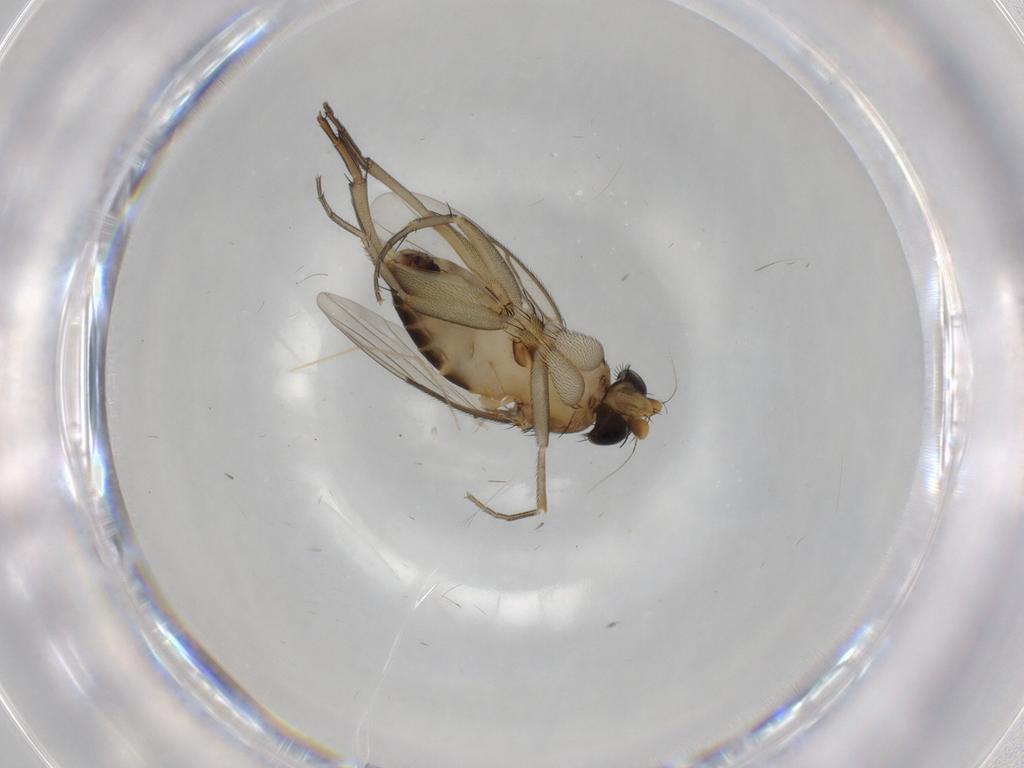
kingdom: Animalia
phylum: Arthropoda
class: Insecta
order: Diptera
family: Phoridae
